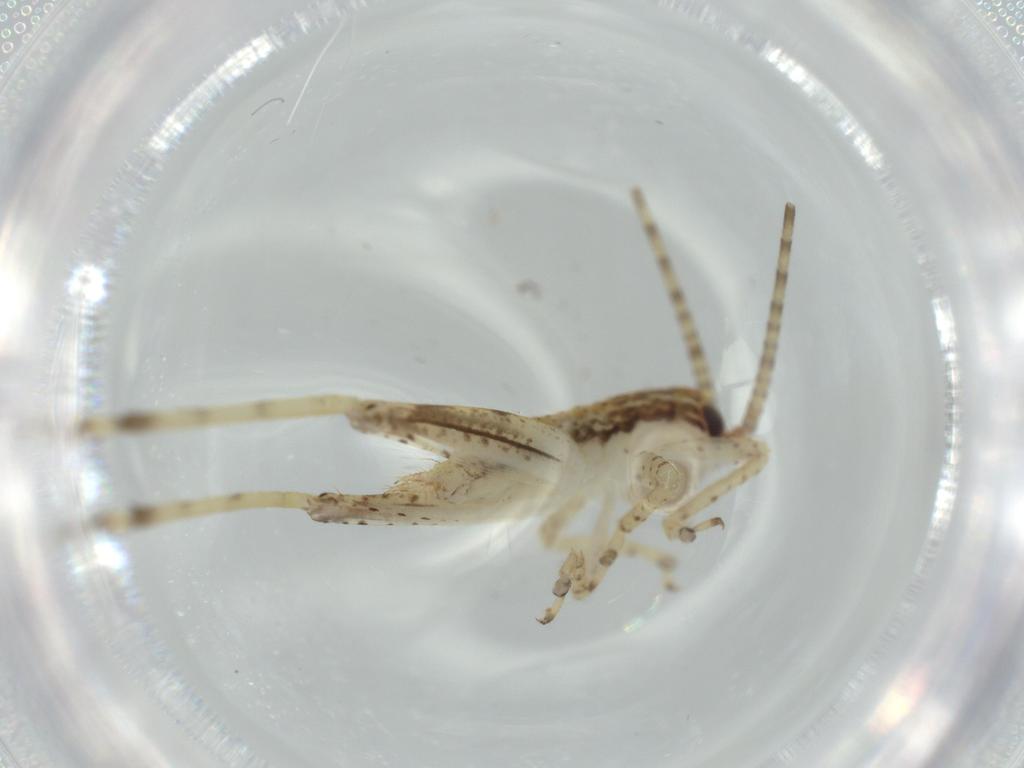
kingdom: Animalia
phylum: Arthropoda
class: Insecta
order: Orthoptera
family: Gryllidae
